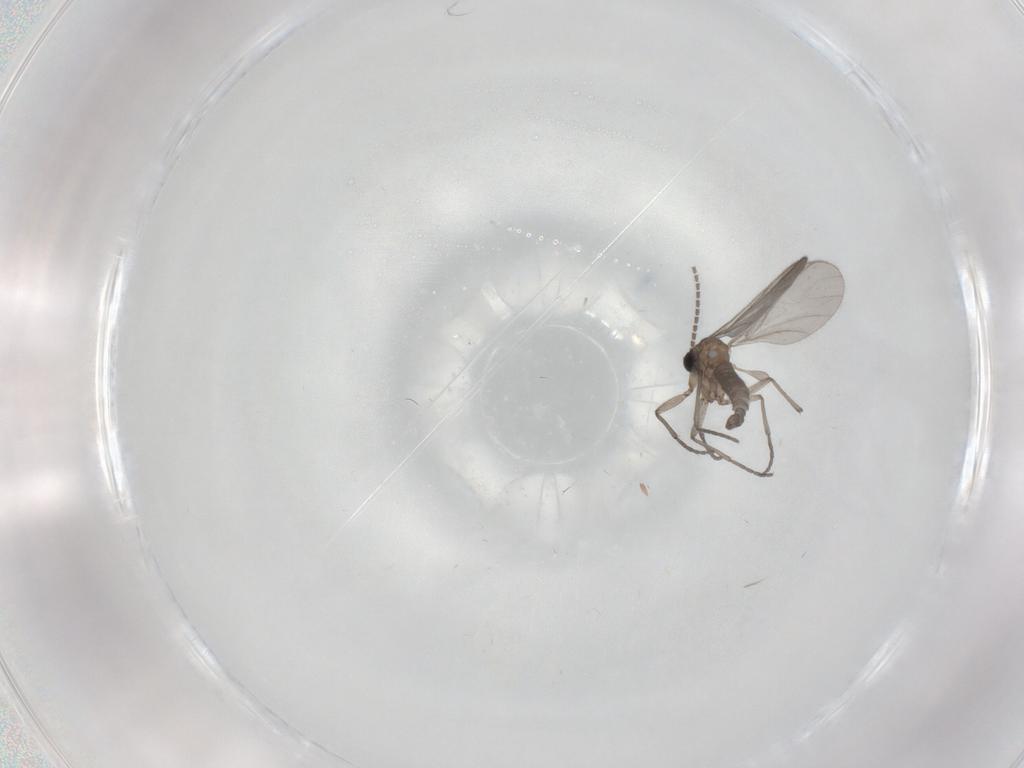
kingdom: Animalia
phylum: Arthropoda
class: Insecta
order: Diptera
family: Sciaridae
